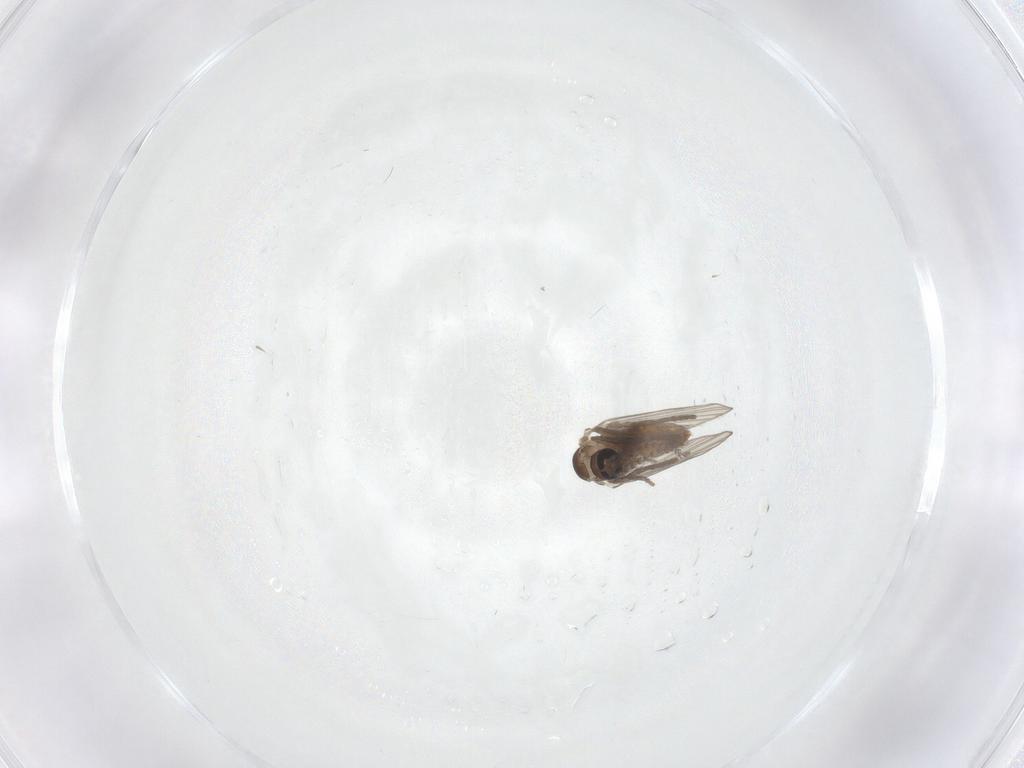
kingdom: Animalia
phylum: Arthropoda
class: Insecta
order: Diptera
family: Psychodidae
